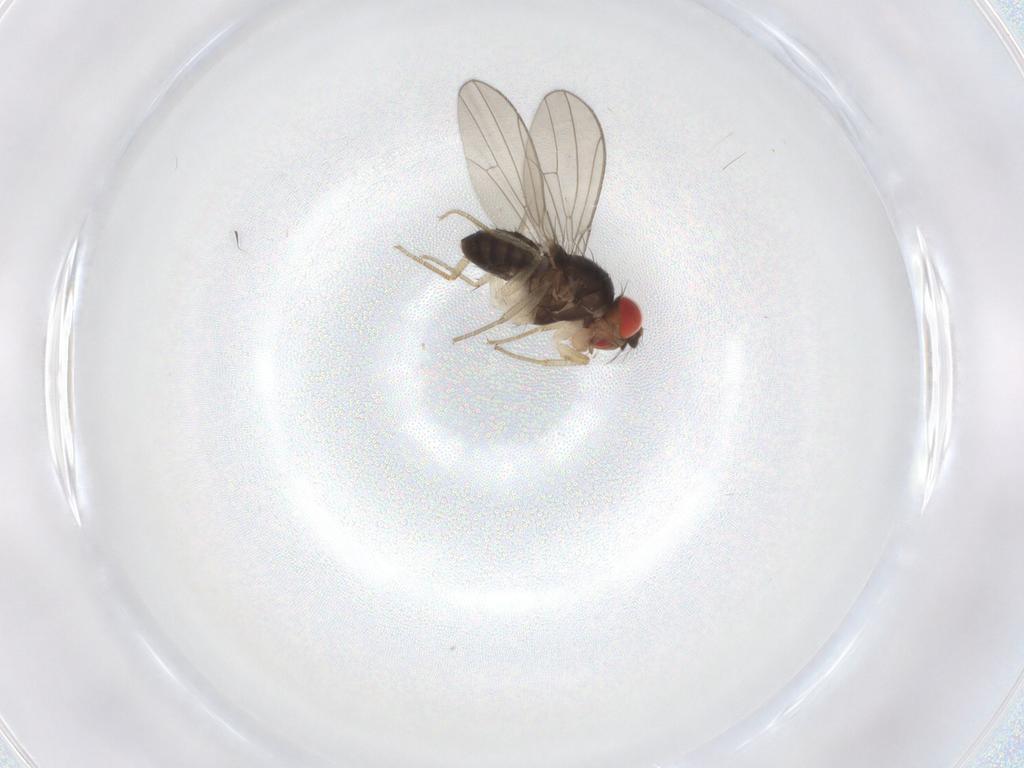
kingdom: Animalia
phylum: Arthropoda
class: Insecta
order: Diptera
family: Drosophilidae
